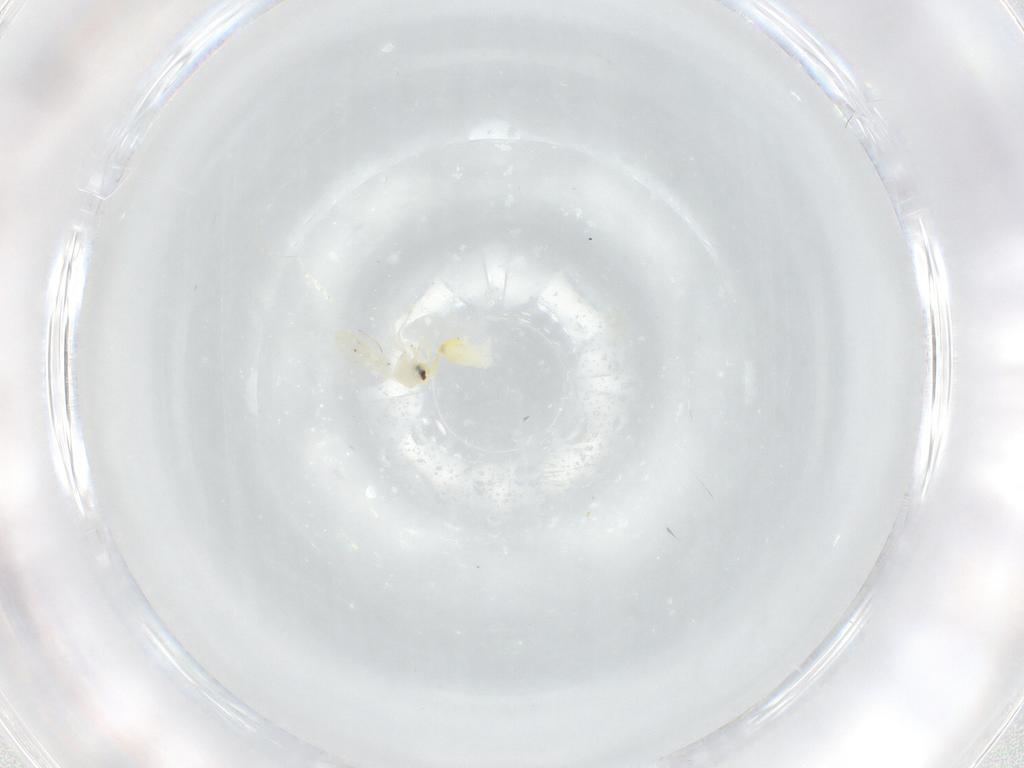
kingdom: Animalia
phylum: Arthropoda
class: Insecta
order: Hemiptera
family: Aleyrodidae
